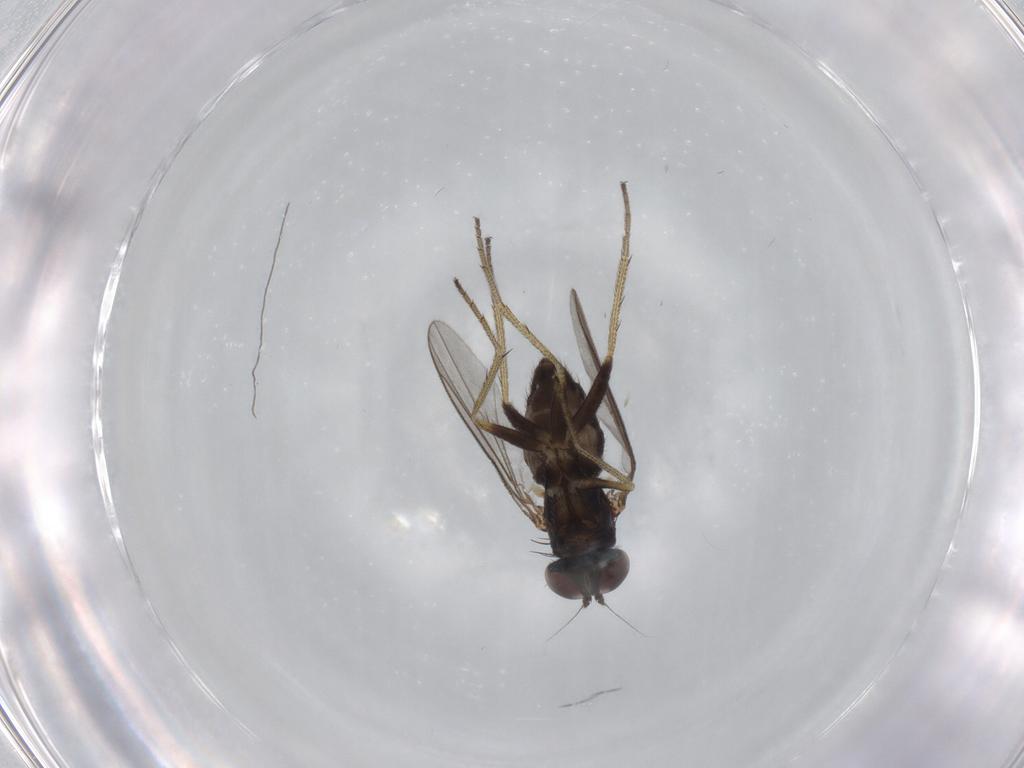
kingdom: Animalia
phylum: Arthropoda
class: Insecta
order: Diptera
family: Dolichopodidae
